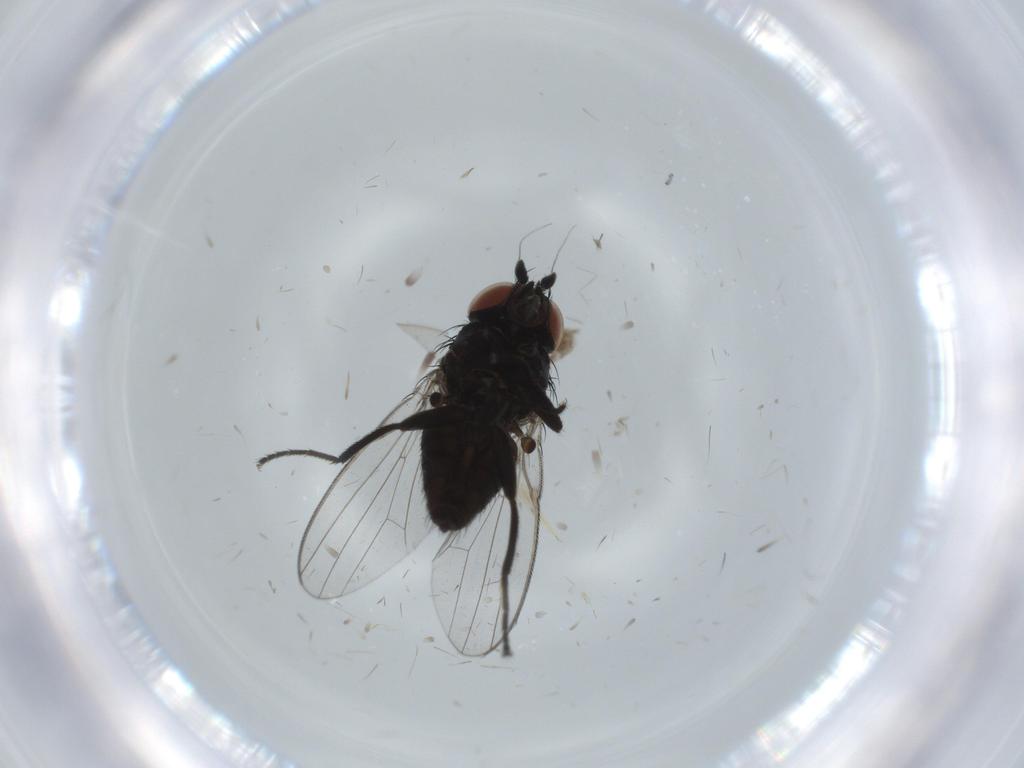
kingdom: Animalia
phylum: Arthropoda
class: Insecta
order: Diptera
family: Milichiidae
